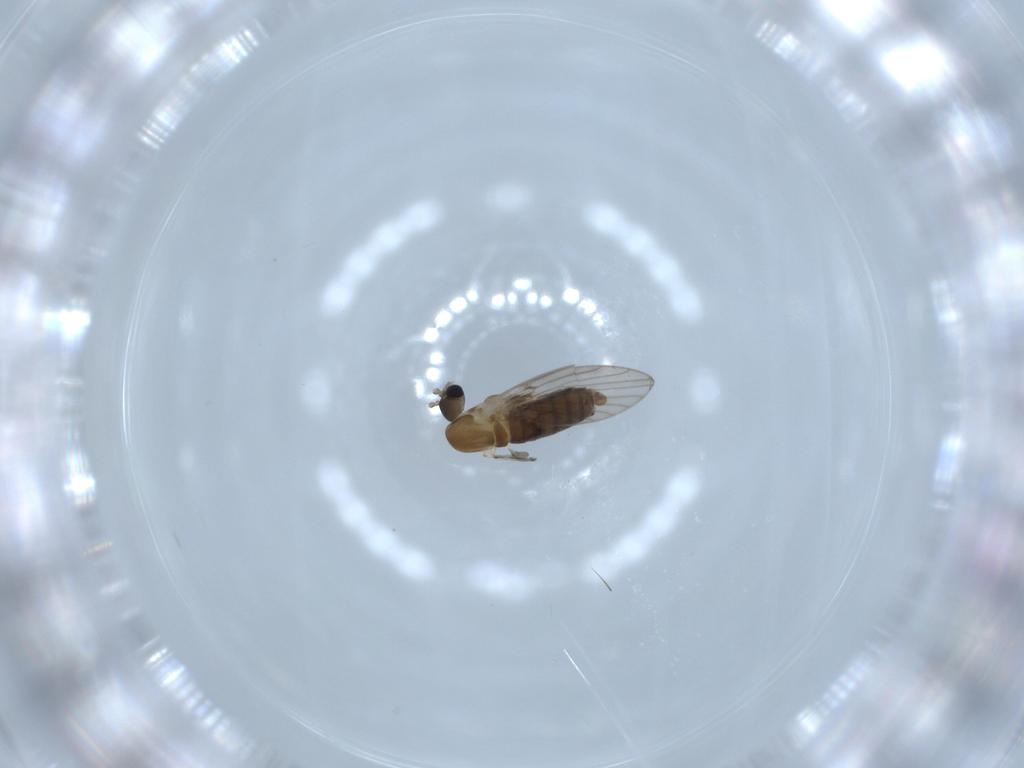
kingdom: Animalia
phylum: Arthropoda
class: Insecta
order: Diptera
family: Psychodidae
